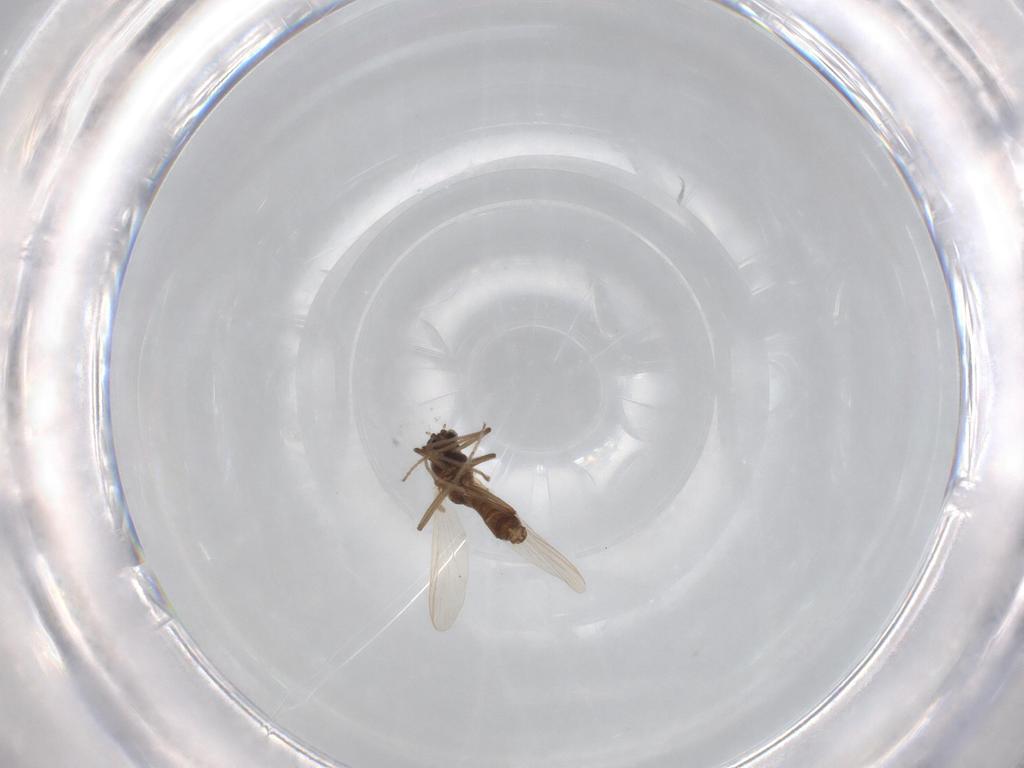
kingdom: Animalia
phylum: Arthropoda
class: Insecta
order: Diptera
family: Chironomidae
